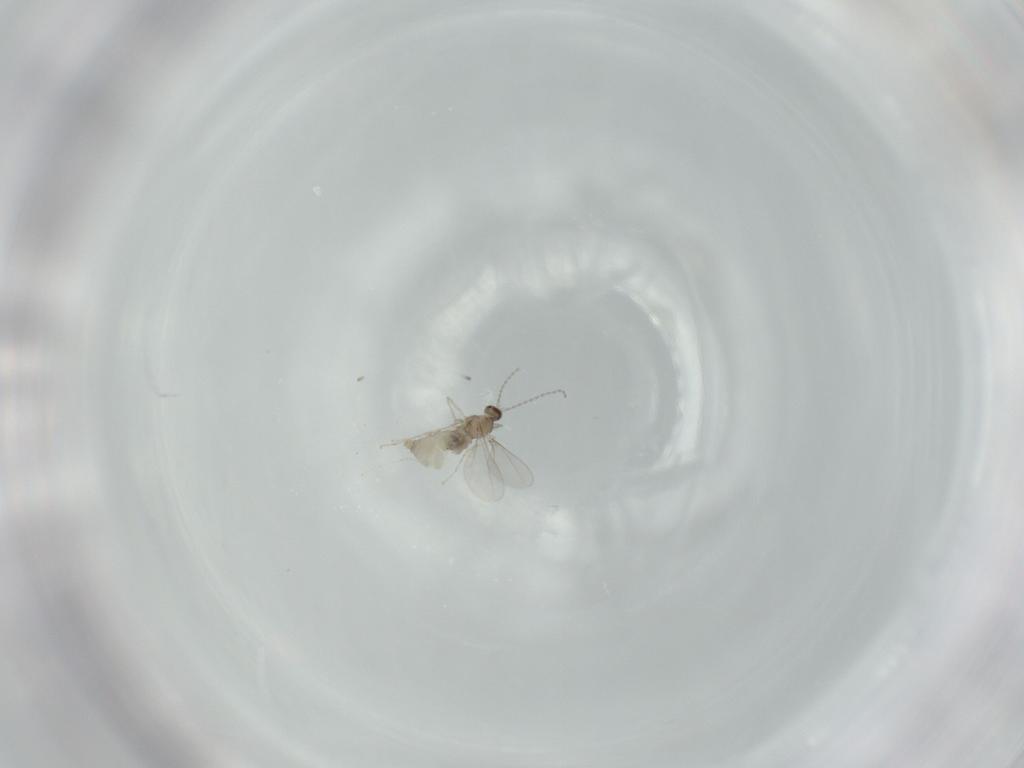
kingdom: Animalia
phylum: Arthropoda
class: Insecta
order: Diptera
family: Cecidomyiidae
